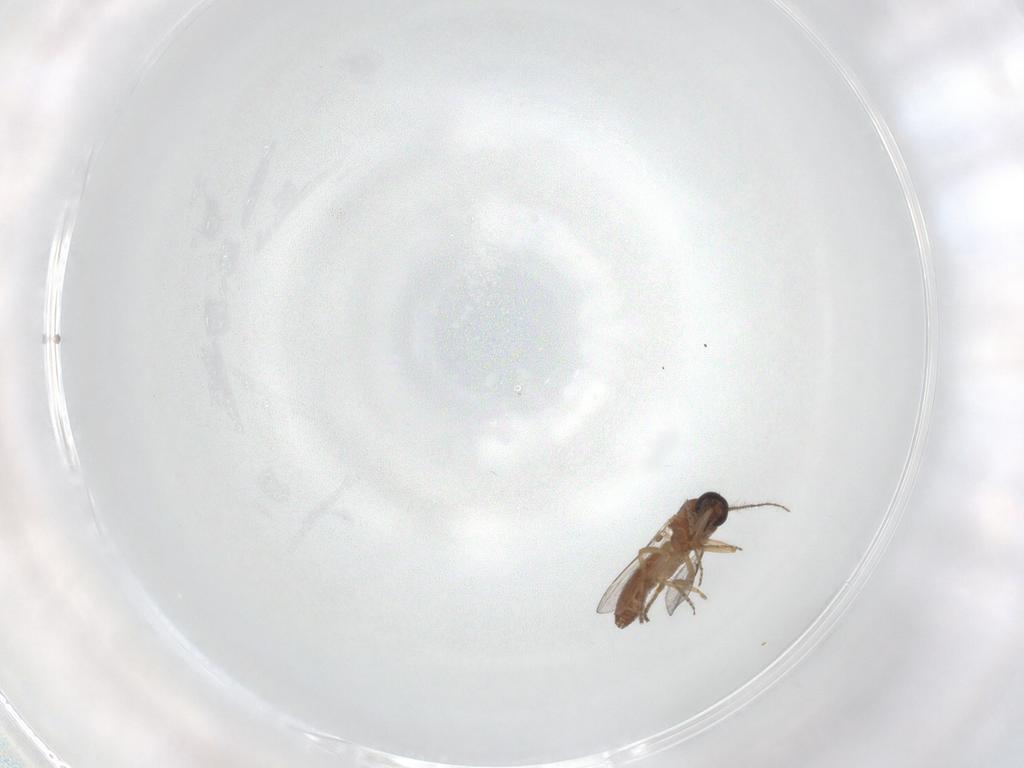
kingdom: Animalia
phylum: Arthropoda
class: Insecta
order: Diptera
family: Ceratopogonidae
